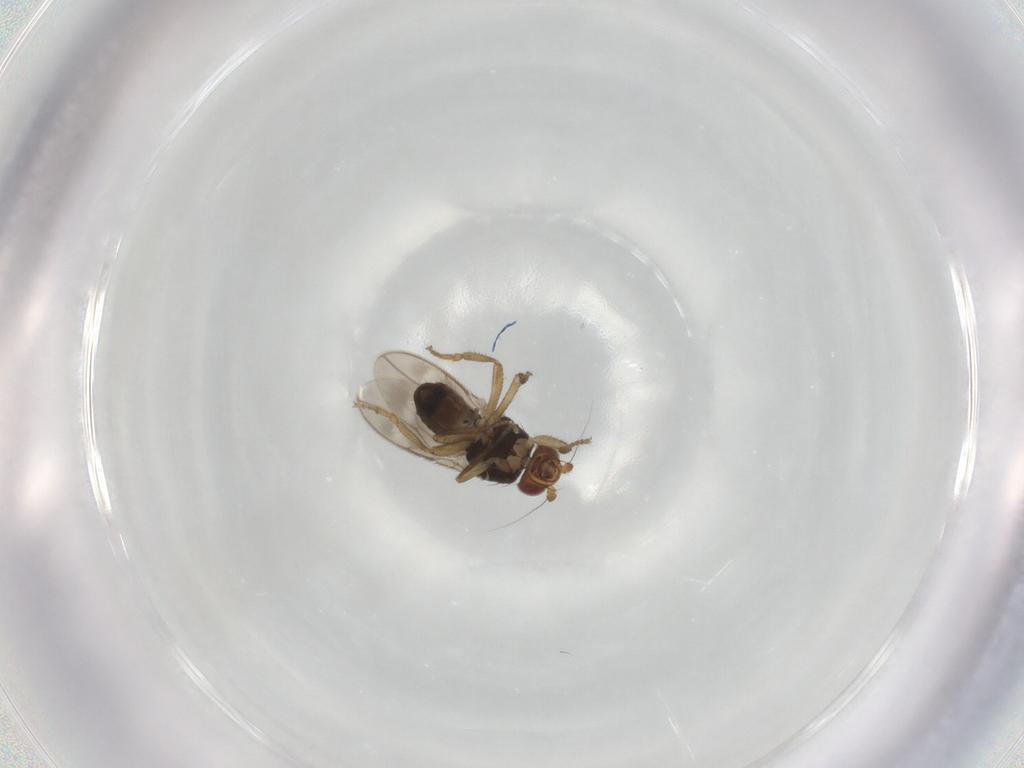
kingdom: Animalia
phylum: Arthropoda
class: Insecta
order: Diptera
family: Sphaeroceridae
